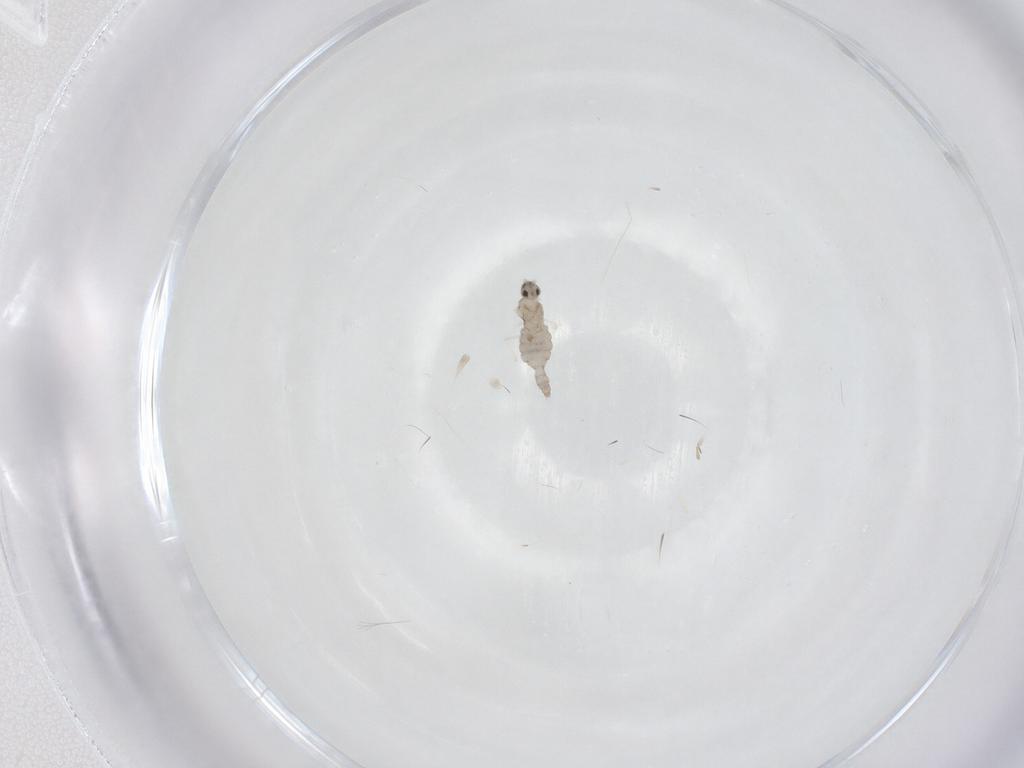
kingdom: Animalia
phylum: Arthropoda
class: Insecta
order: Diptera
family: Cecidomyiidae
